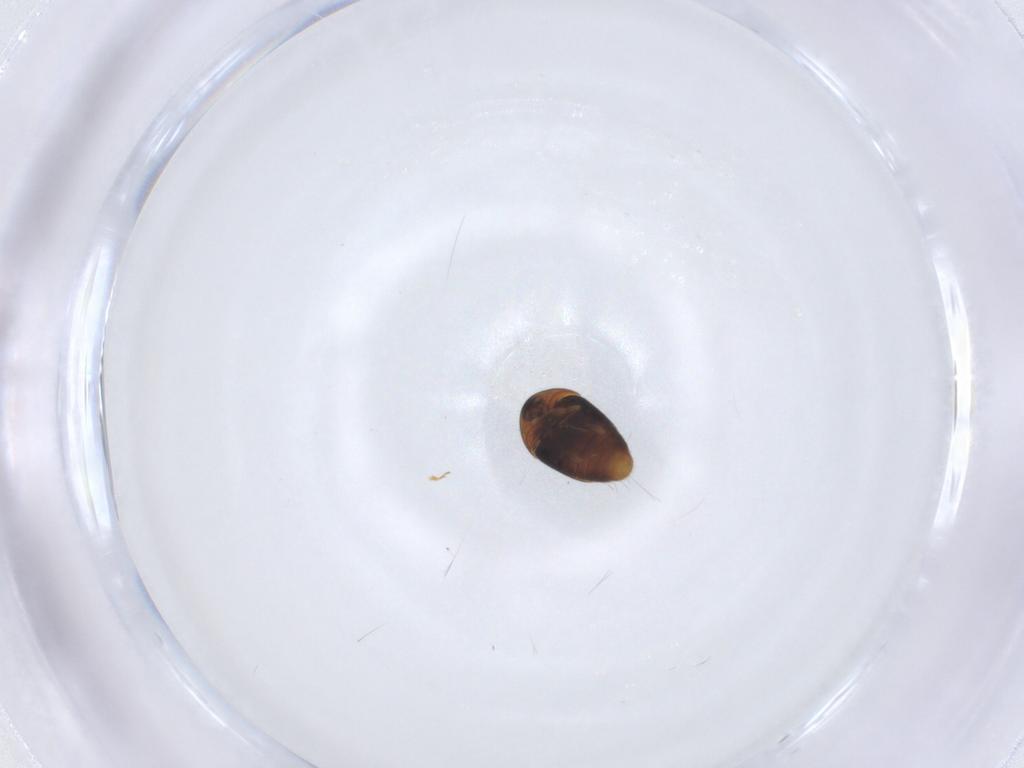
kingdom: Animalia
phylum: Arthropoda
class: Insecta
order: Coleoptera
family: Corylophidae
